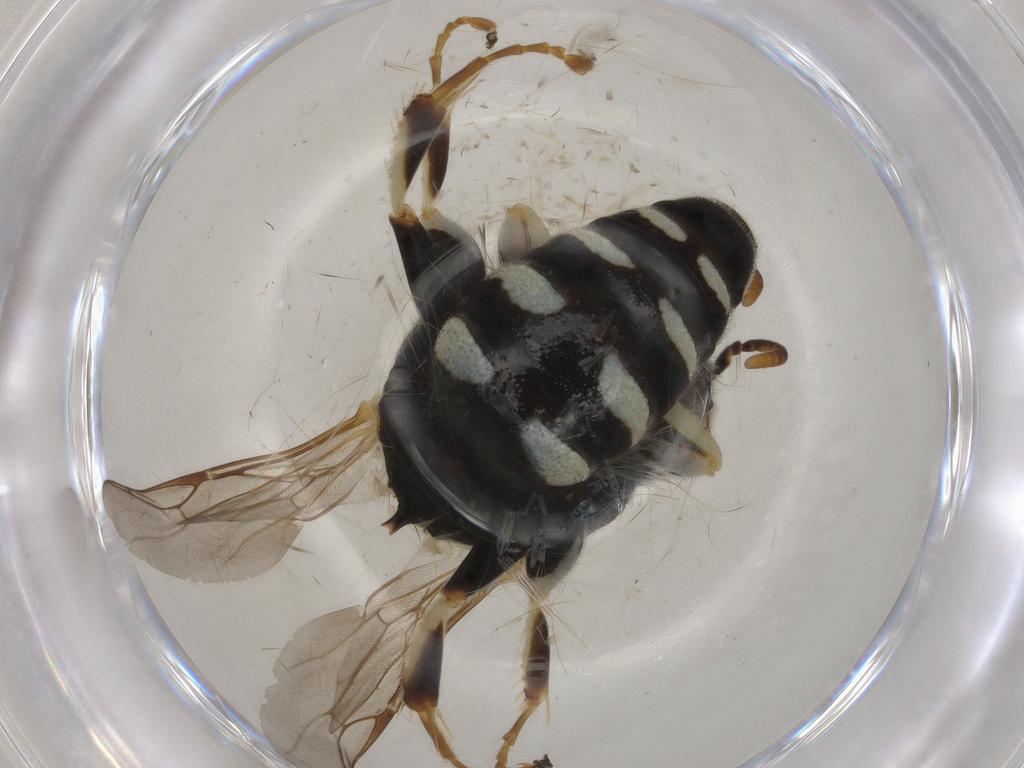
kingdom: Animalia
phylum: Arthropoda
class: Insecta
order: Hymenoptera
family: Crabronidae
